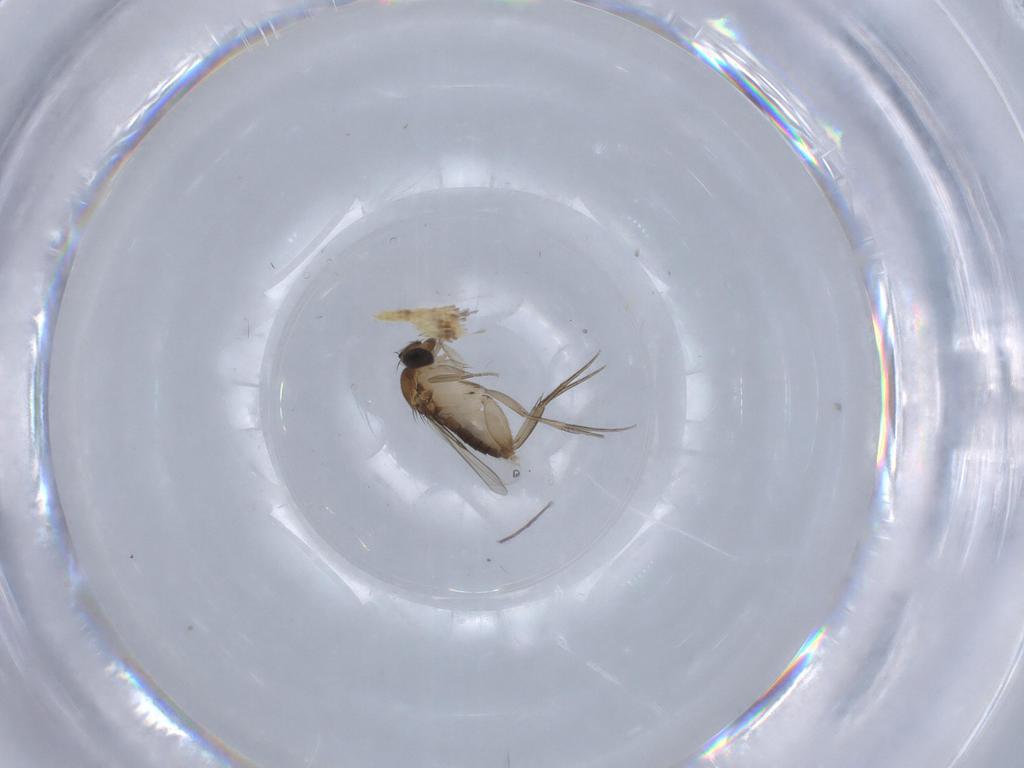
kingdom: Animalia
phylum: Arthropoda
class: Insecta
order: Diptera
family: Phoridae
